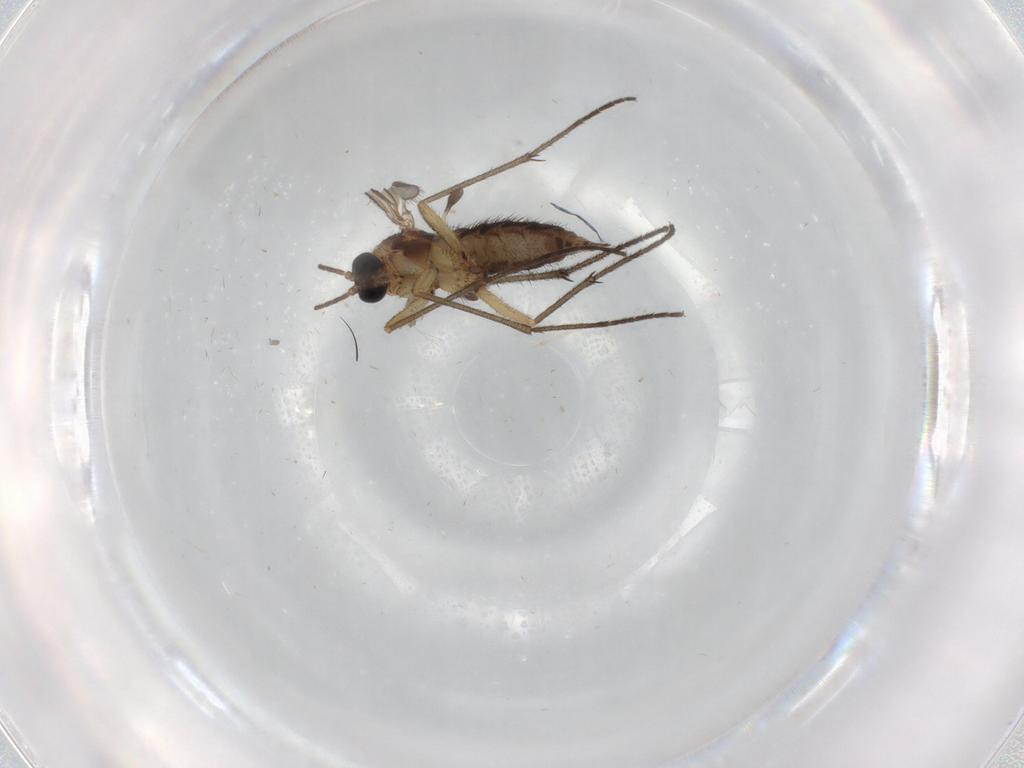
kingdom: Animalia
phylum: Arthropoda
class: Insecta
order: Diptera
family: Sciaridae
